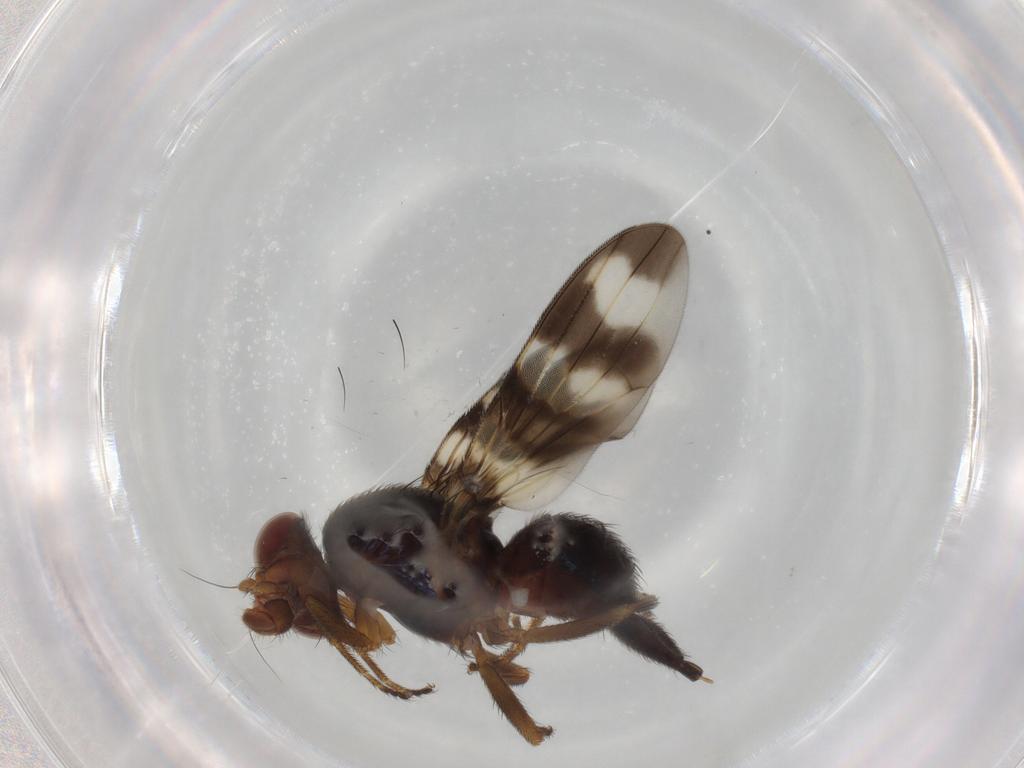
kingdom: Animalia
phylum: Arthropoda
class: Insecta
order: Diptera
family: Ulidiidae
